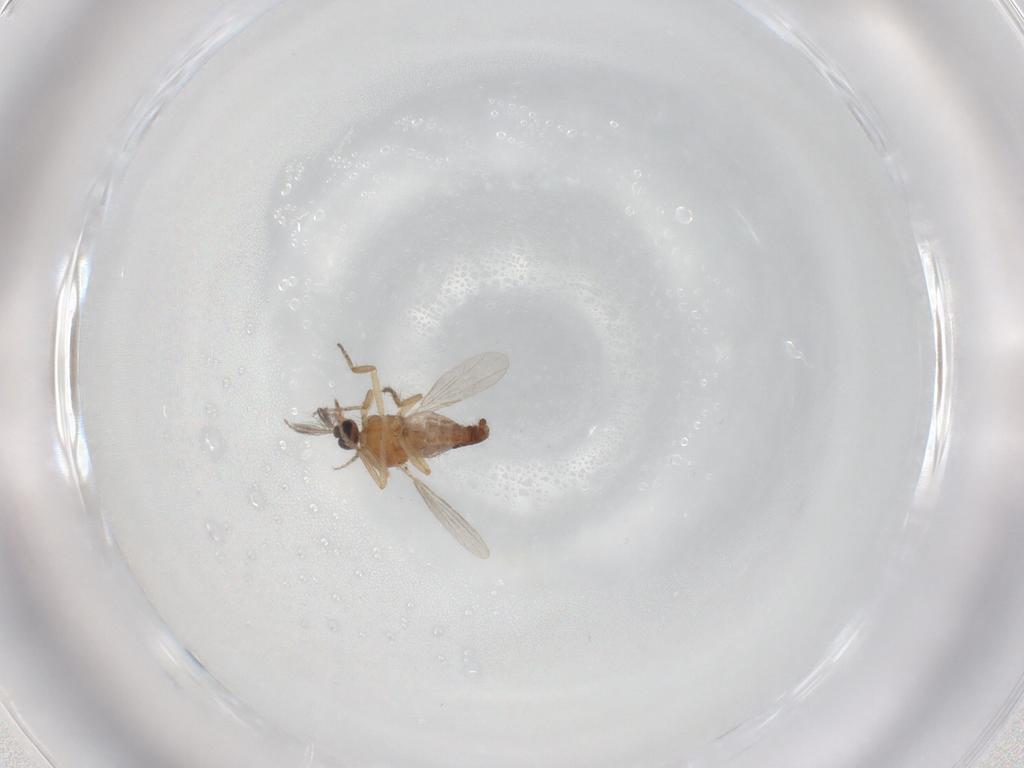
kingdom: Animalia
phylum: Arthropoda
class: Insecta
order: Diptera
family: Ceratopogonidae
